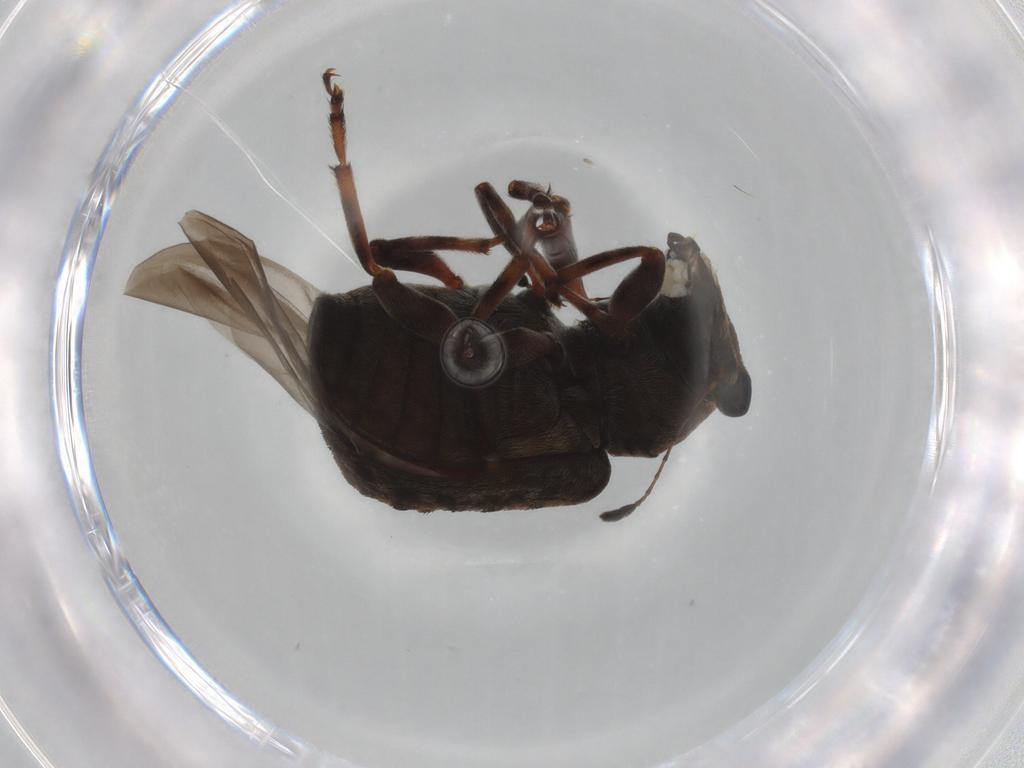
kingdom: Animalia
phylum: Arthropoda
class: Insecta
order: Coleoptera
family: Anthribidae
